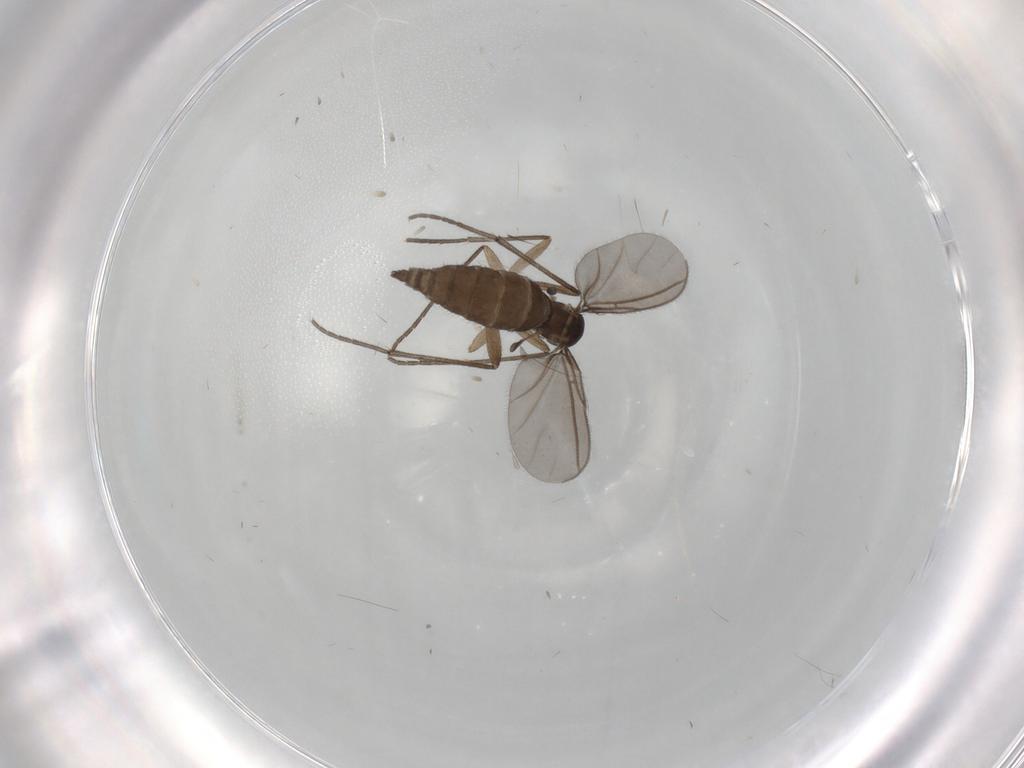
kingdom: Animalia
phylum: Arthropoda
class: Insecta
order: Diptera
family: Sciaridae
